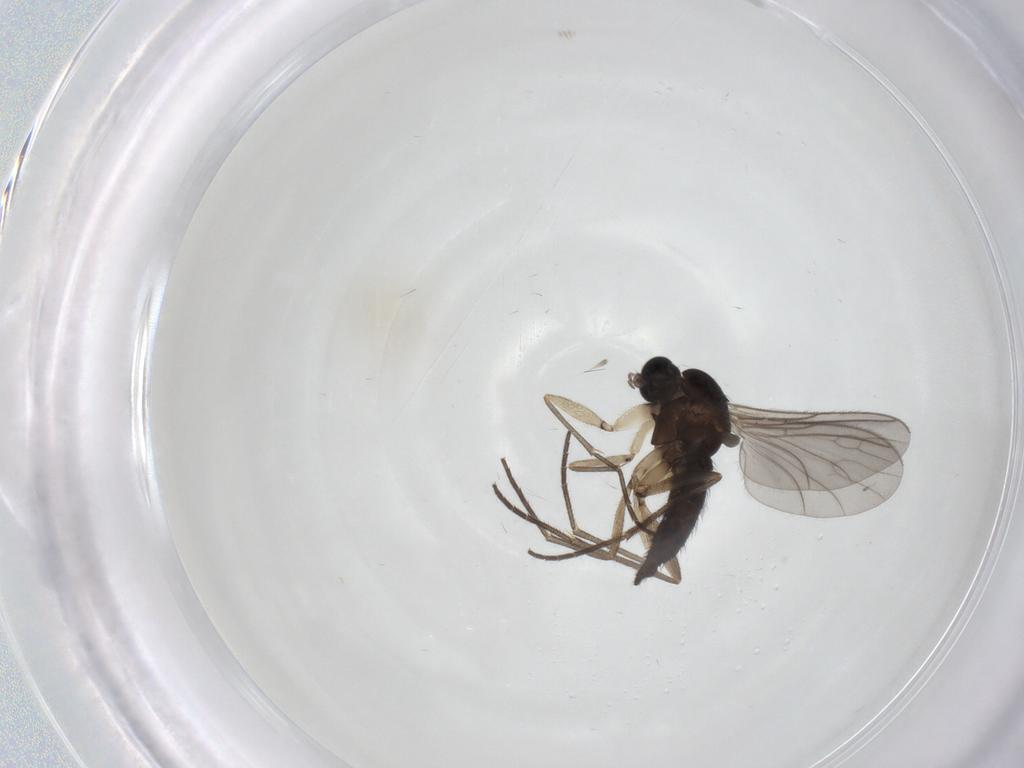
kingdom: Animalia
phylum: Arthropoda
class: Insecta
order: Diptera
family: Sciaridae
